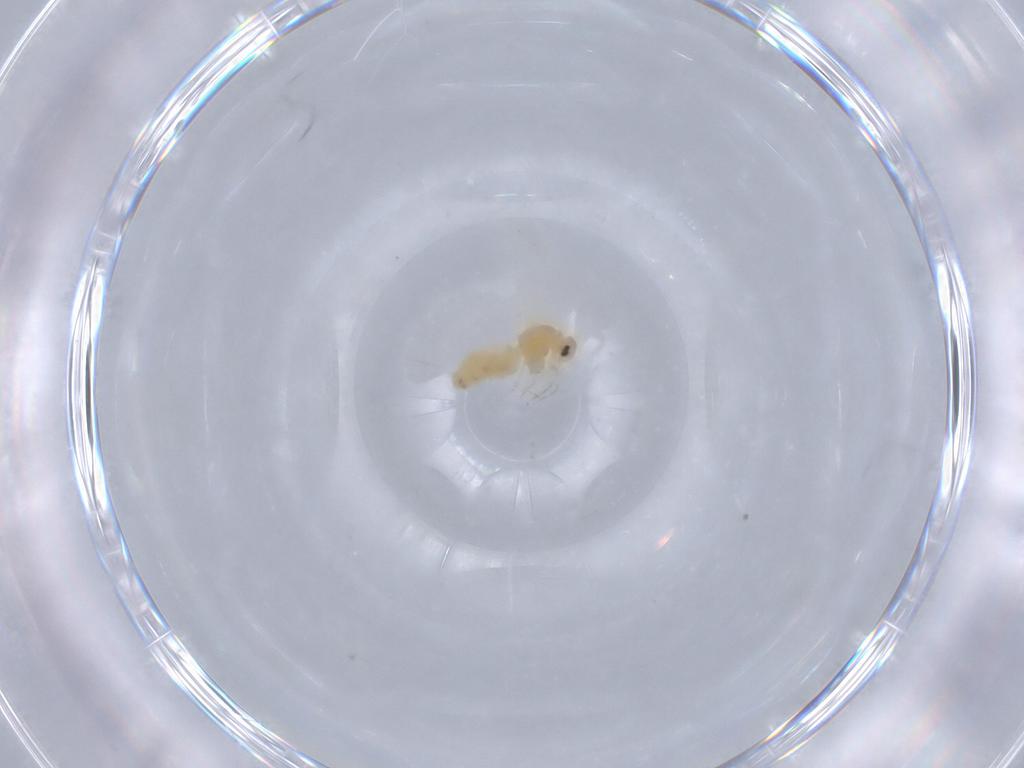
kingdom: Animalia
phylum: Arthropoda
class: Insecta
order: Hemiptera
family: Aleyrodidae
